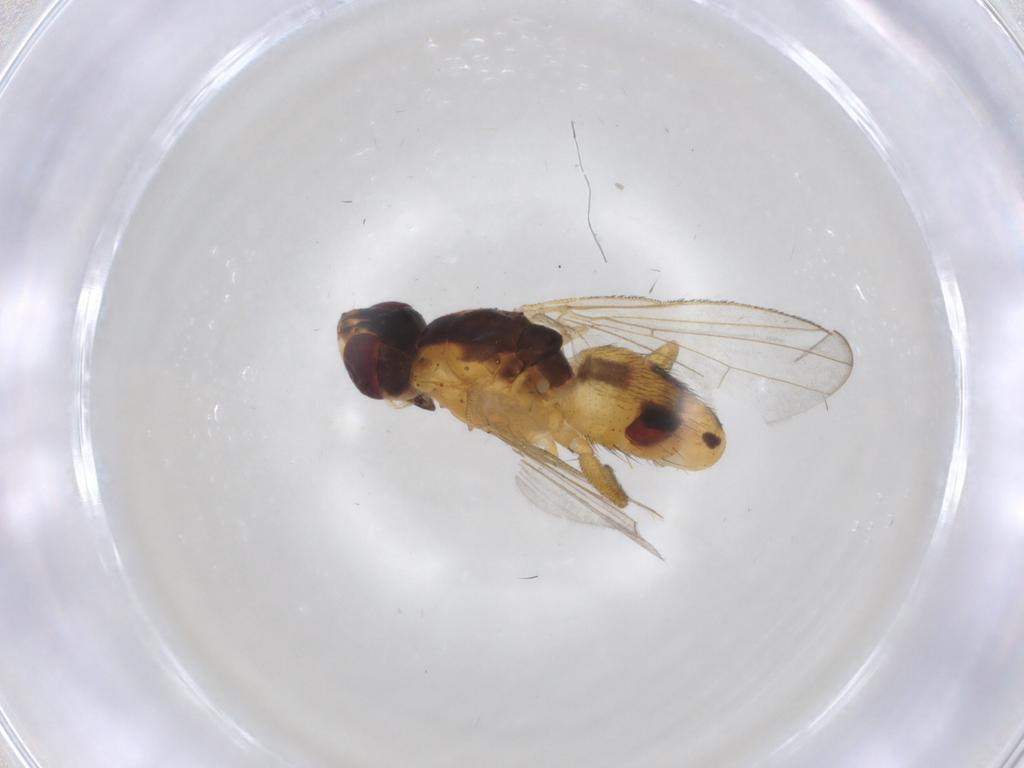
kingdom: Animalia
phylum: Arthropoda
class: Insecta
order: Diptera
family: Muscidae
